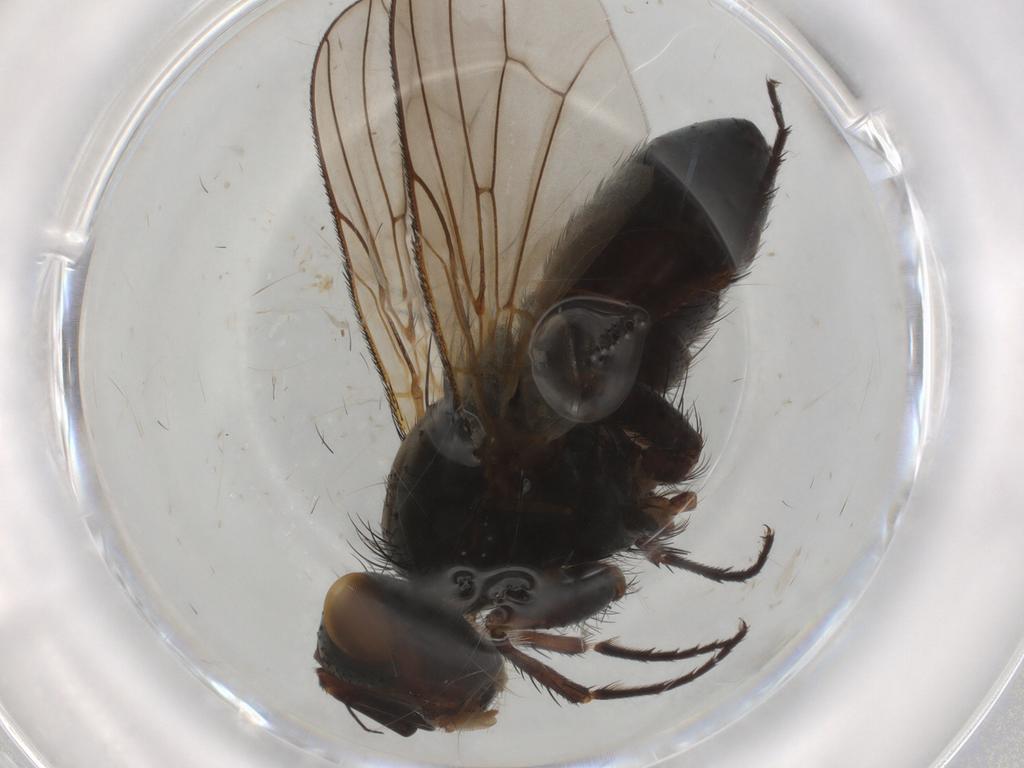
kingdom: Animalia
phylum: Arthropoda
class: Insecta
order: Diptera
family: Tachinidae
